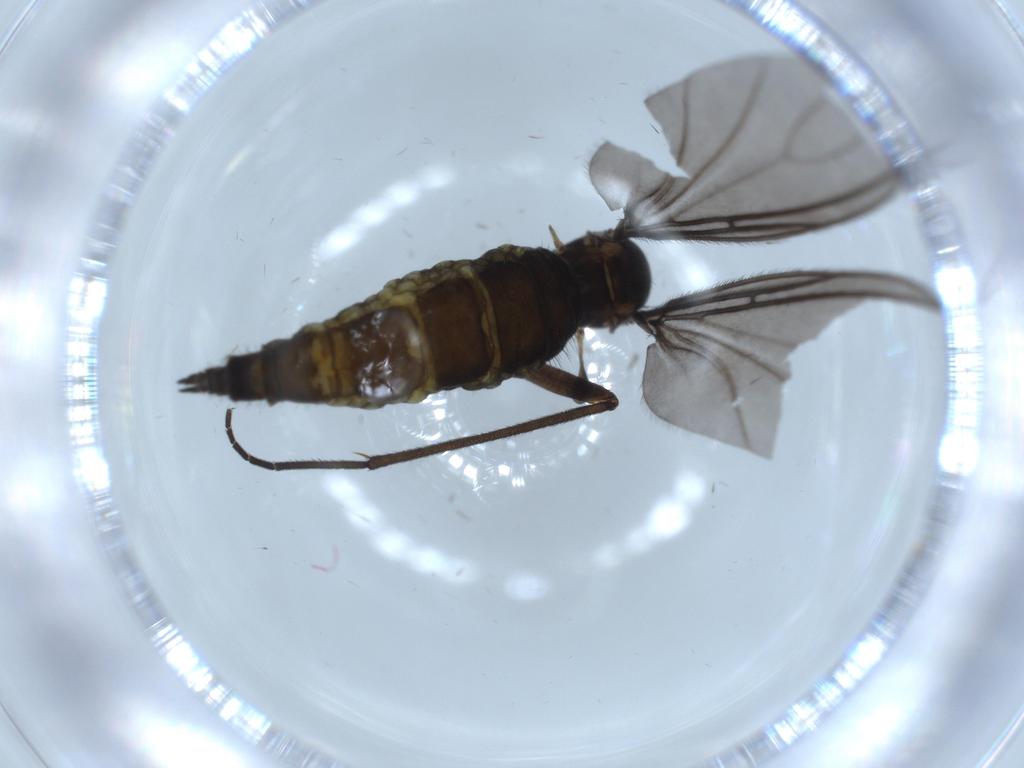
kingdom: Animalia
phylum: Arthropoda
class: Insecta
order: Diptera
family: Sciaridae
